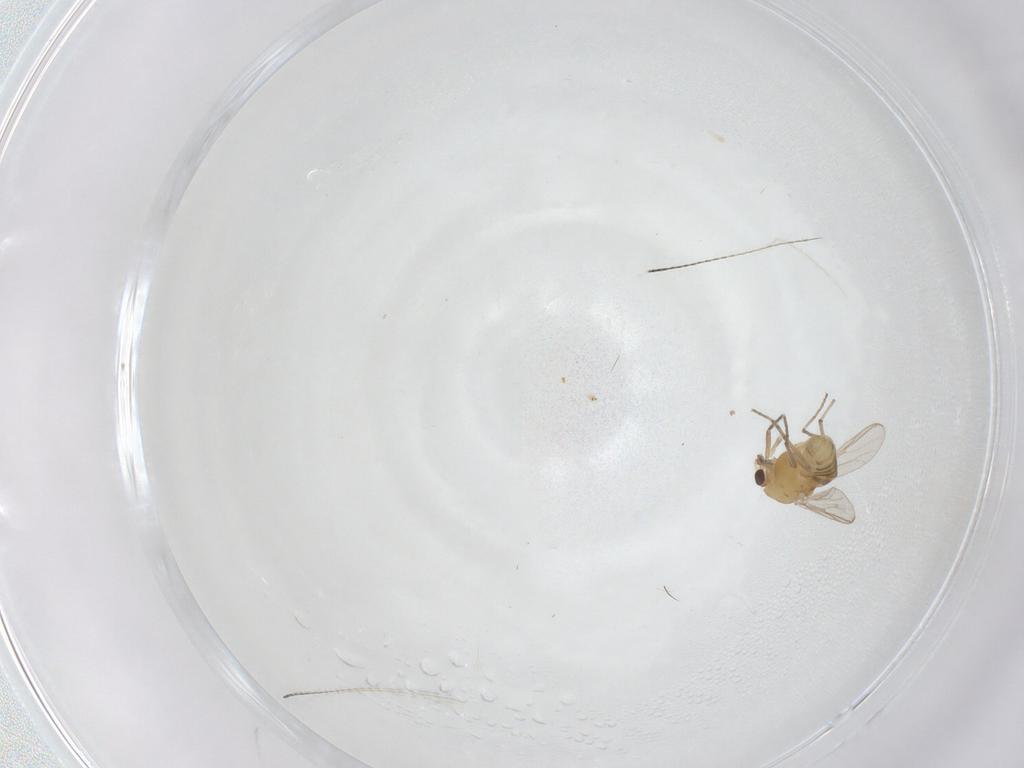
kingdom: Animalia
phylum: Arthropoda
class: Insecta
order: Diptera
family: Chironomidae
